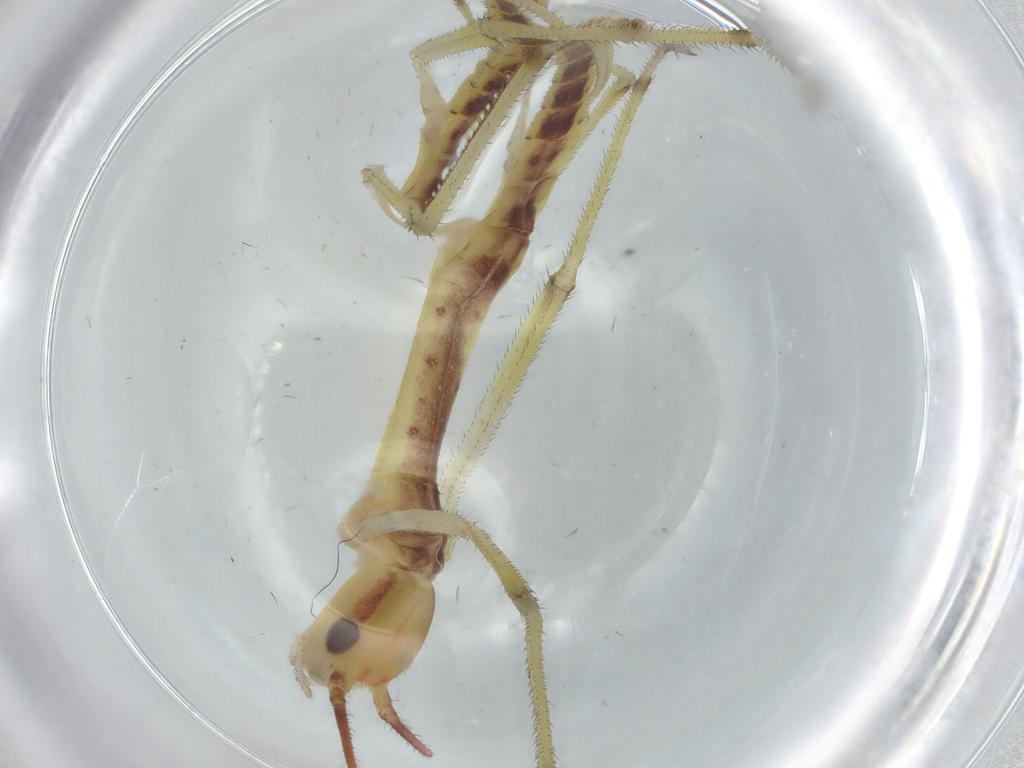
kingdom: Animalia
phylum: Arthropoda
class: Insecta
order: Phasmida
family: Agathemeridae
